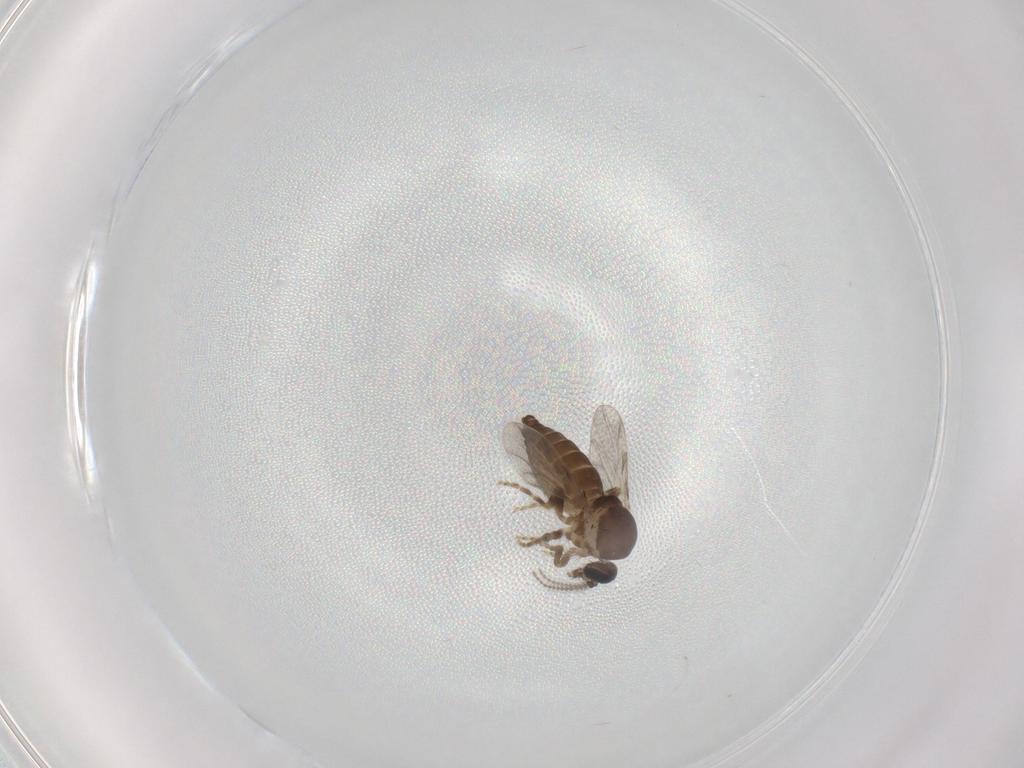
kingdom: Animalia
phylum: Arthropoda
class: Insecta
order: Diptera
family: Ceratopogonidae
